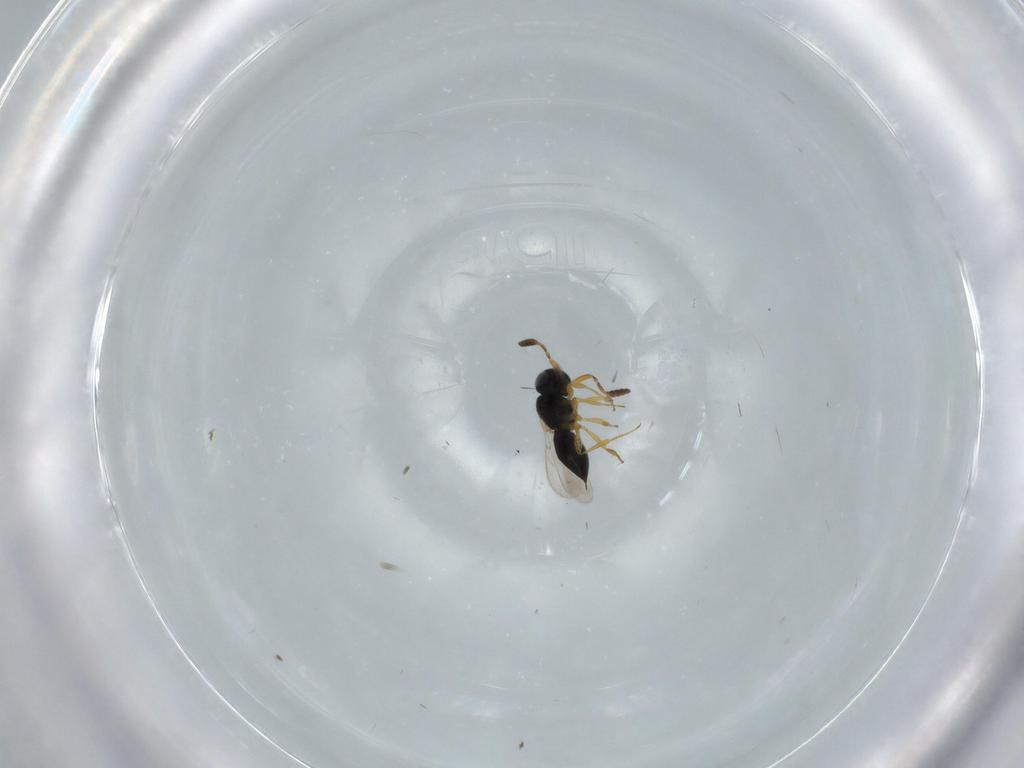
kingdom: Animalia
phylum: Arthropoda
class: Insecta
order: Hymenoptera
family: Scelionidae
